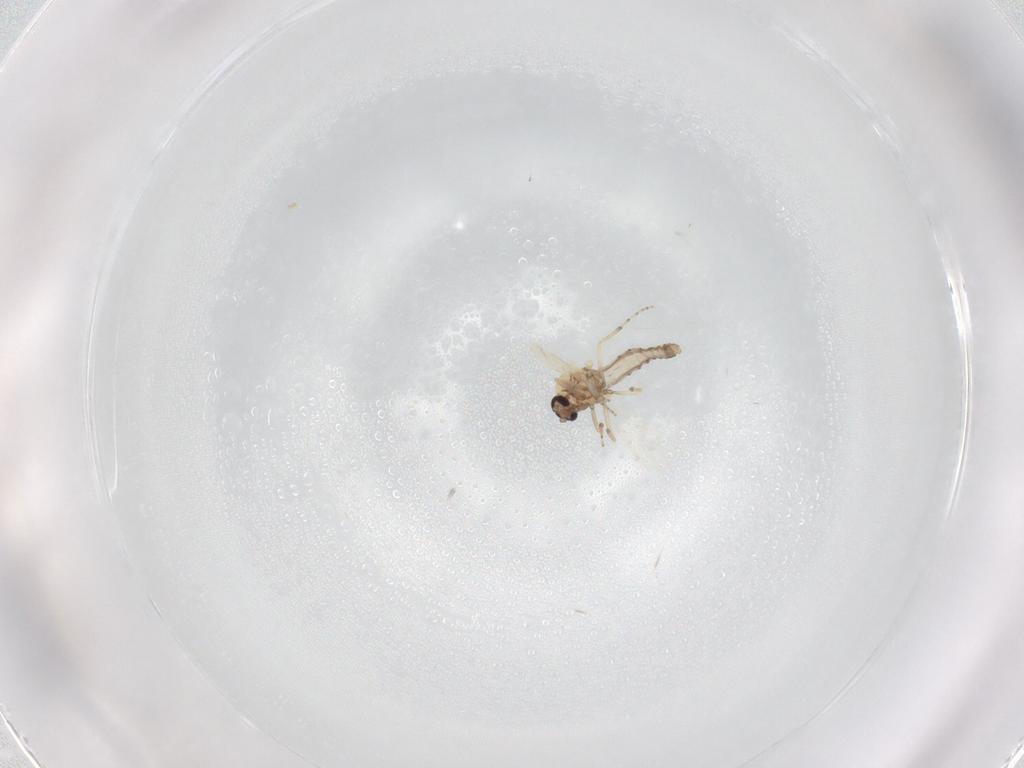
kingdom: Animalia
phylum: Arthropoda
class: Insecta
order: Diptera
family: Ceratopogonidae
